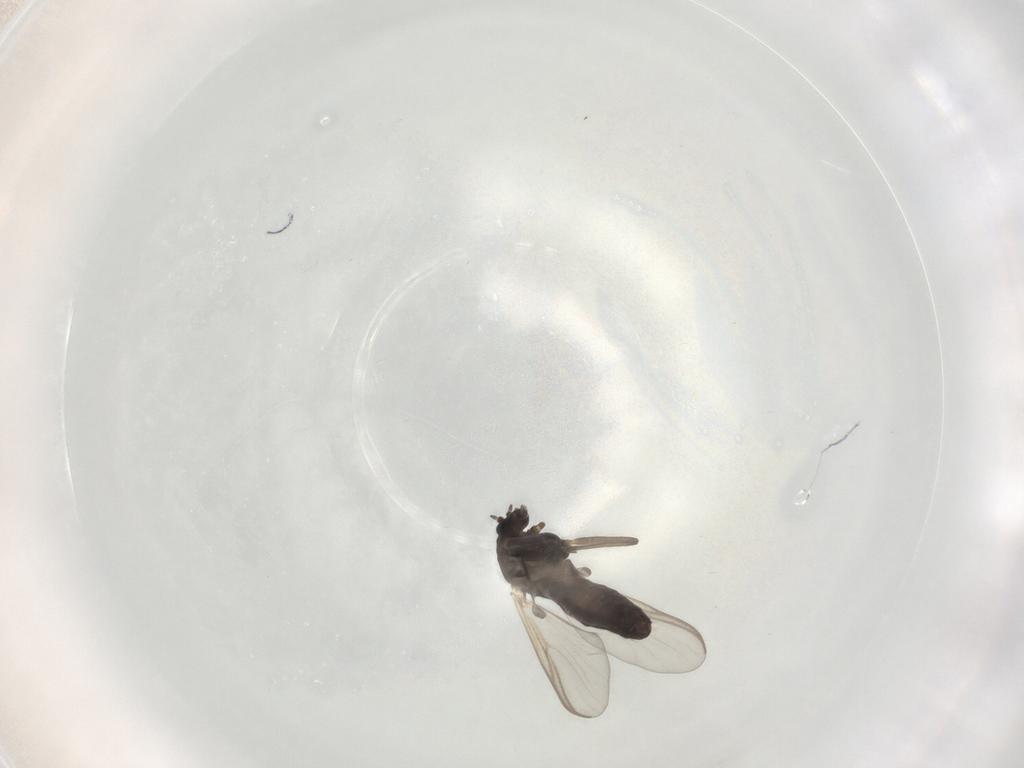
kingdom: Animalia
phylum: Arthropoda
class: Insecta
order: Diptera
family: Chironomidae
